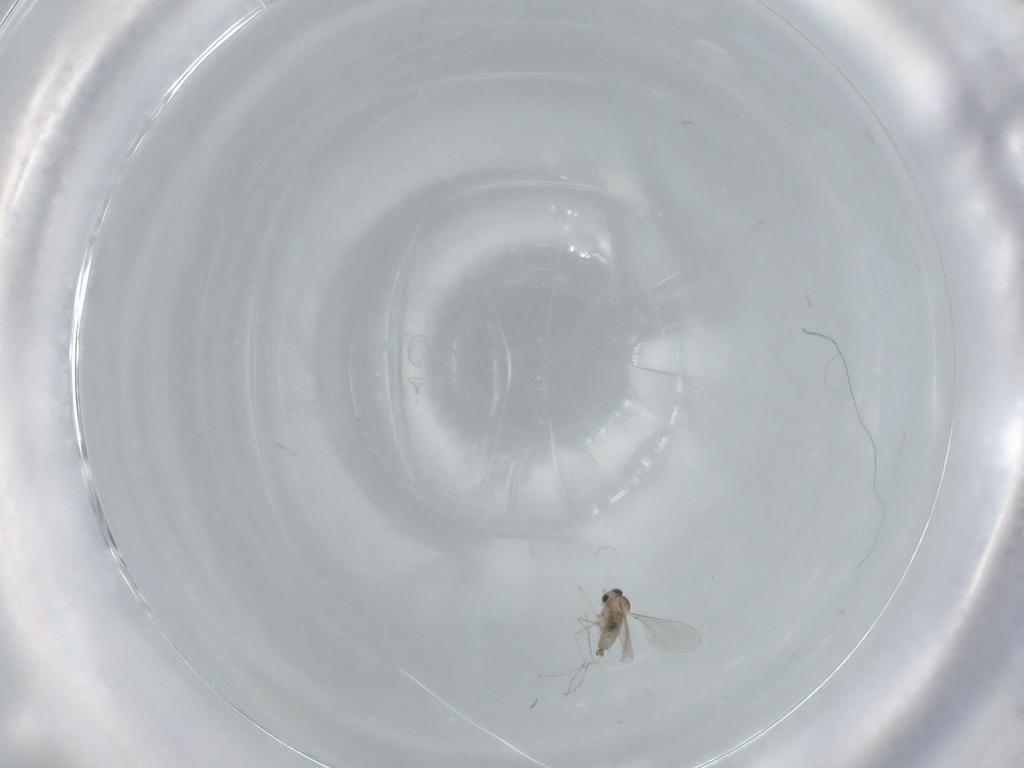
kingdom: Animalia
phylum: Arthropoda
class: Insecta
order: Diptera
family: Cecidomyiidae
